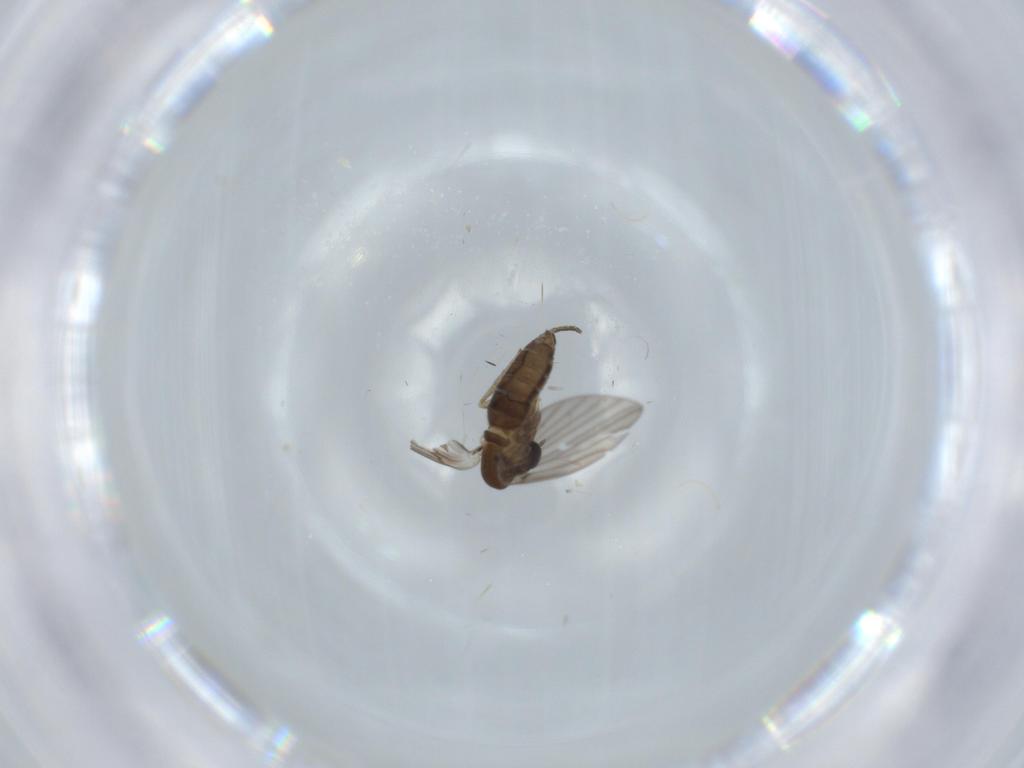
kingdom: Animalia
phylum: Arthropoda
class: Insecta
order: Diptera
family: Psychodidae
